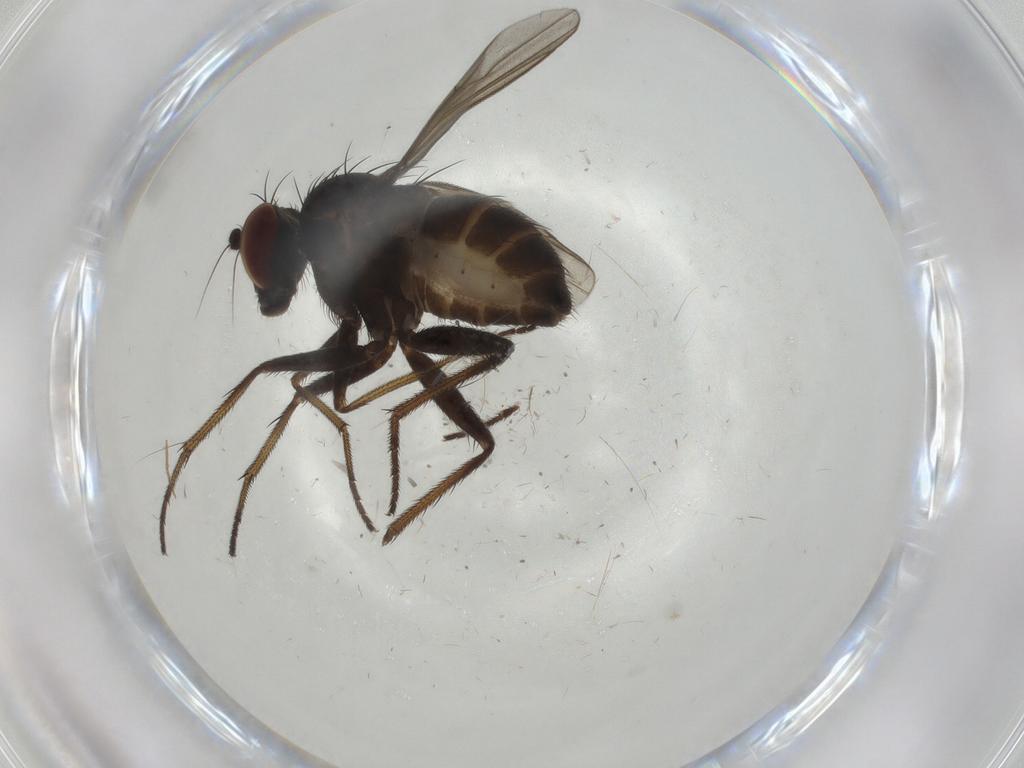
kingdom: Animalia
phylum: Arthropoda
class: Insecta
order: Diptera
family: Dolichopodidae
